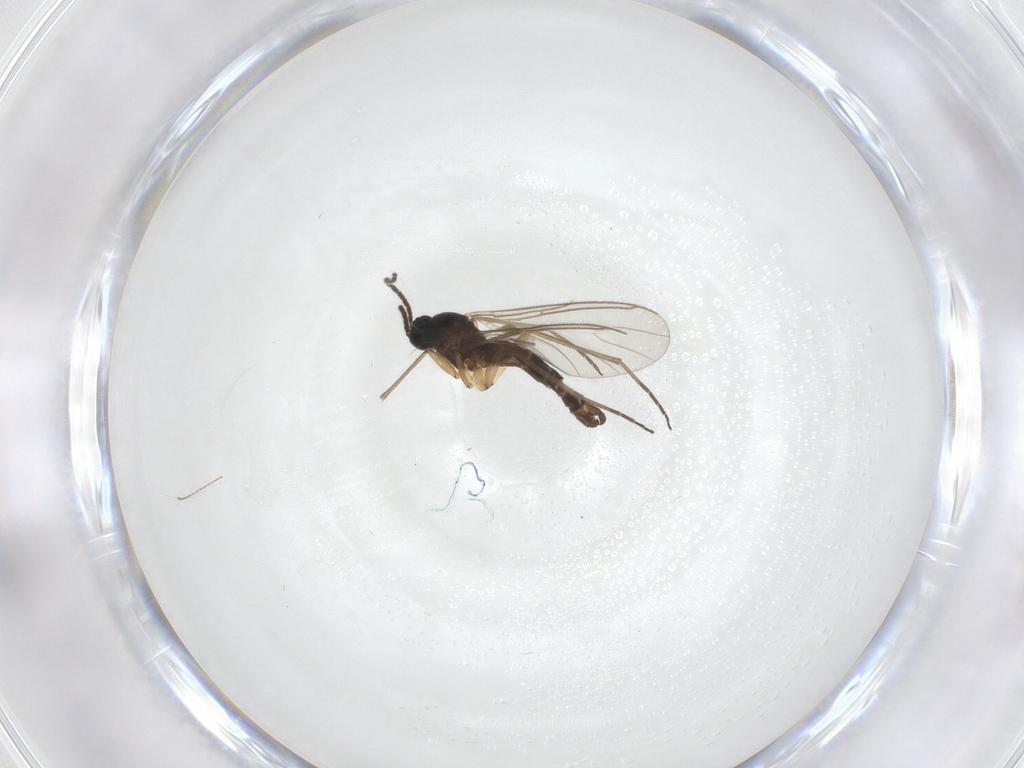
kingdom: Animalia
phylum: Arthropoda
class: Insecta
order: Diptera
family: Sciaridae
